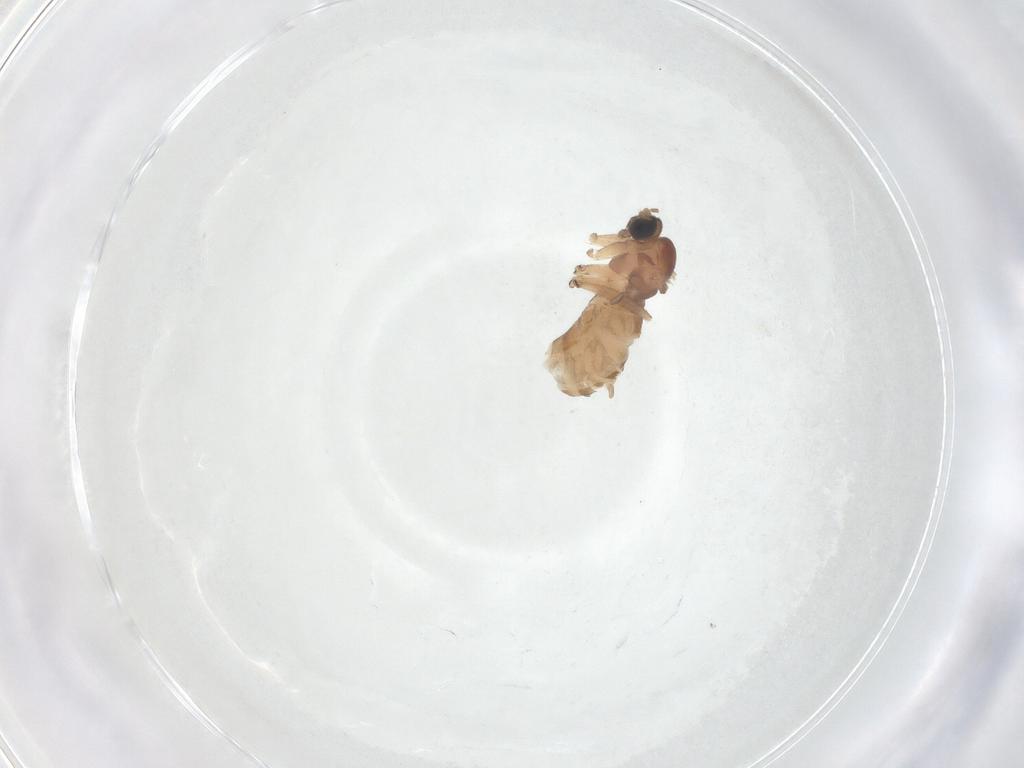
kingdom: Animalia
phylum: Arthropoda
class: Insecta
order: Diptera
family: Sciaridae
